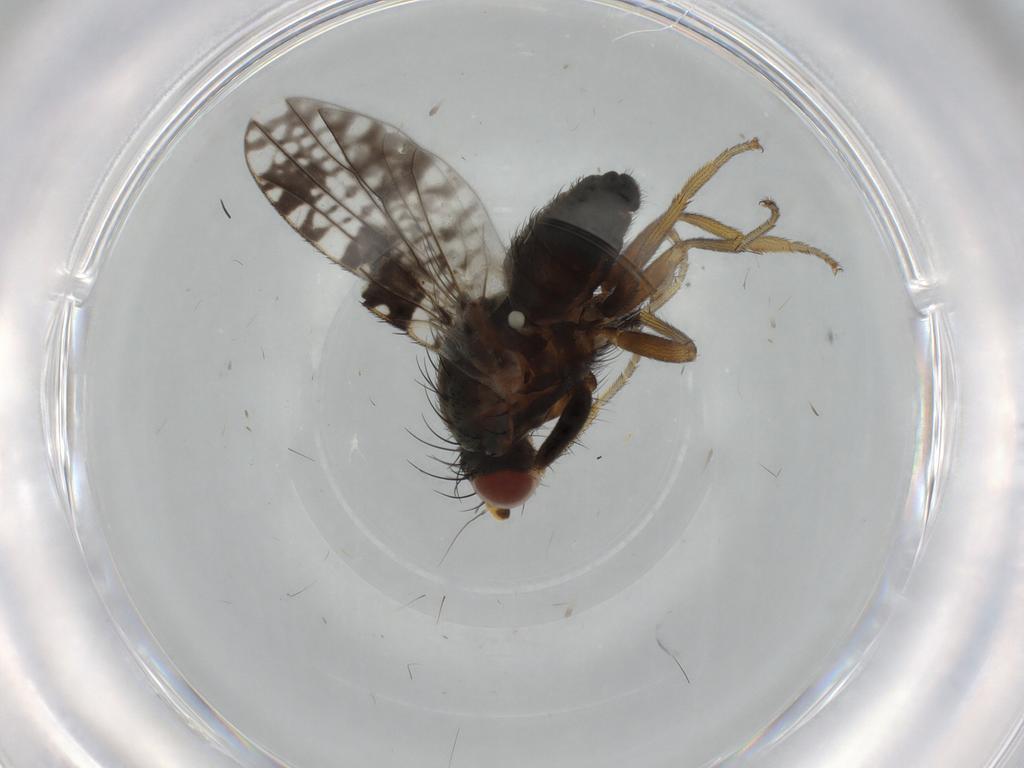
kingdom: Animalia
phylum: Arthropoda
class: Insecta
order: Diptera
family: Tephritidae
